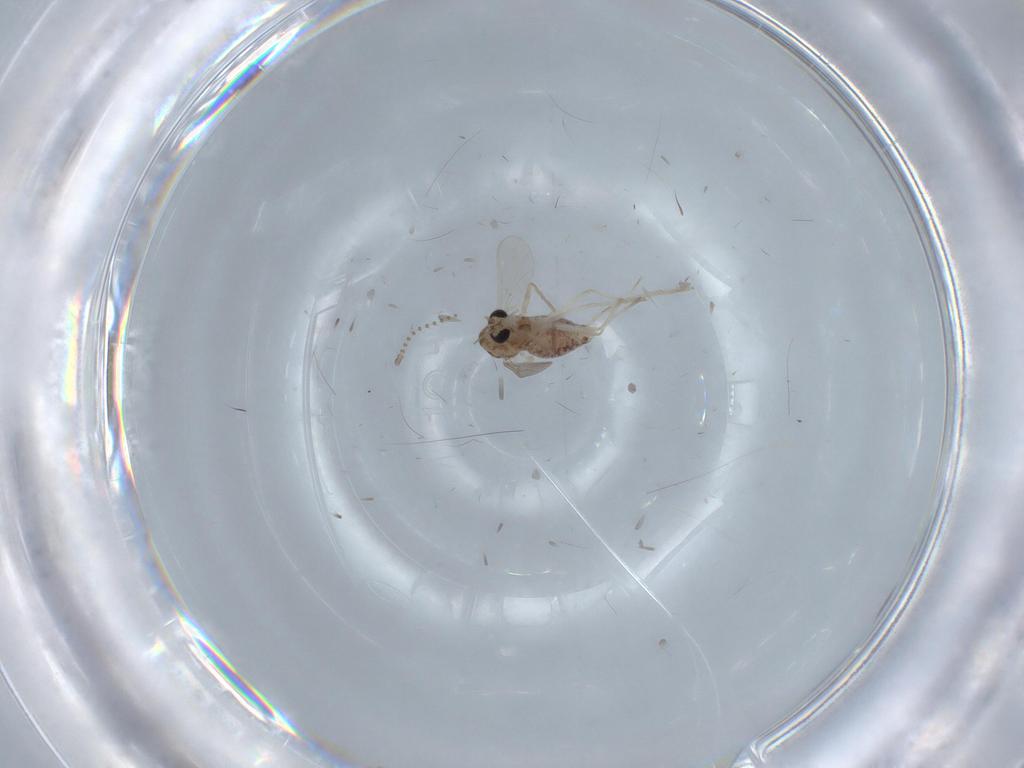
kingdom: Animalia
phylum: Arthropoda
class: Insecta
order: Diptera
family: Psychodidae
